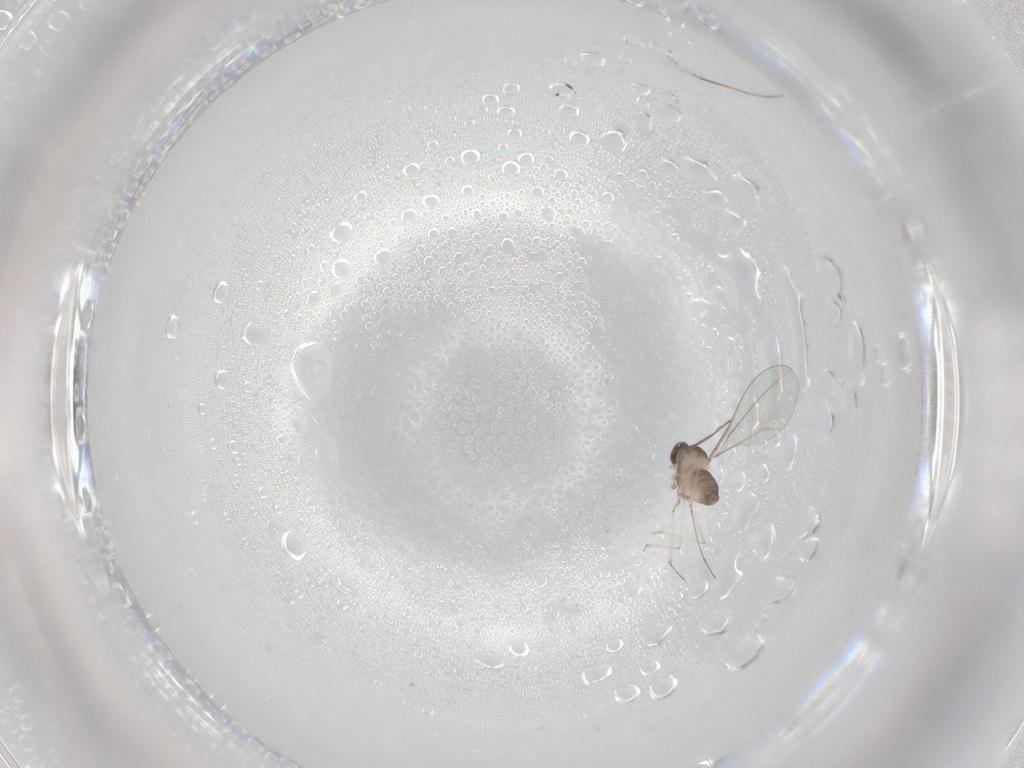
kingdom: Animalia
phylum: Arthropoda
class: Insecta
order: Diptera
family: Cecidomyiidae
